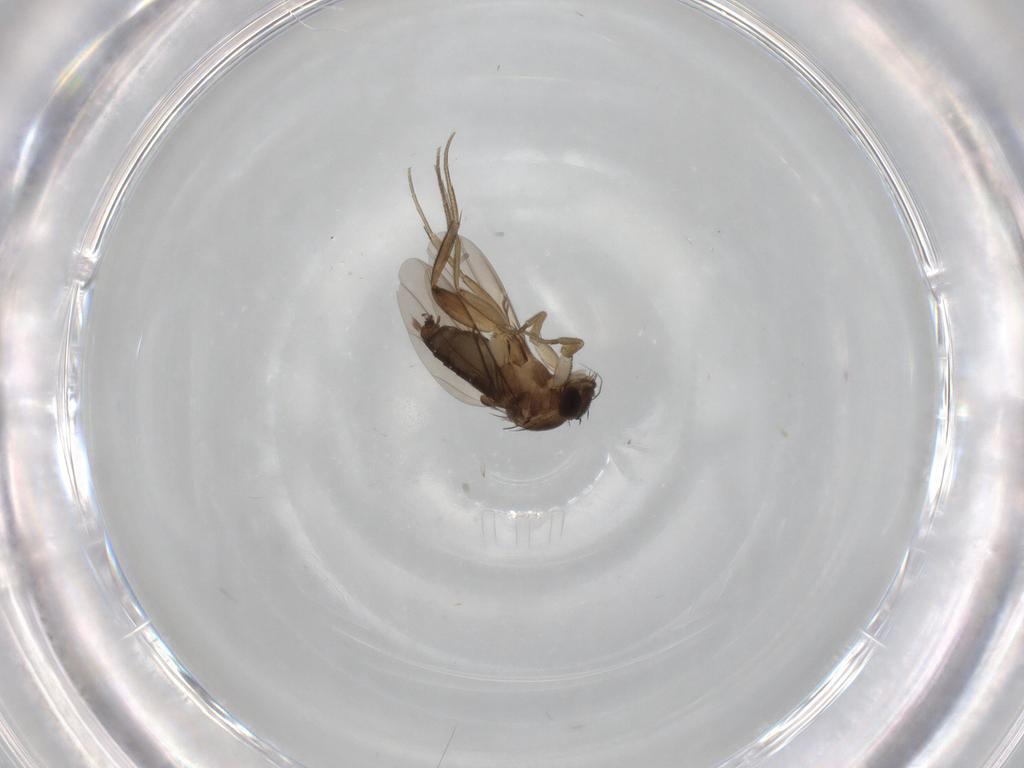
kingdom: Animalia
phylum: Arthropoda
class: Insecta
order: Diptera
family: Phoridae
